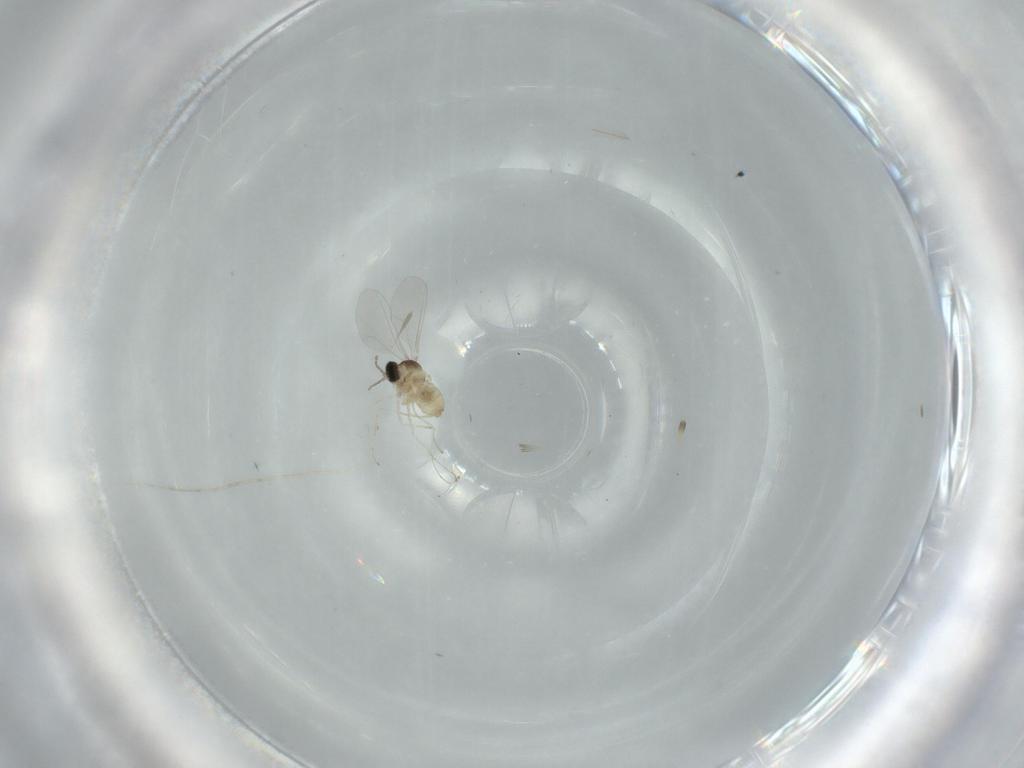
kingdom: Animalia
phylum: Arthropoda
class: Insecta
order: Diptera
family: Cecidomyiidae
